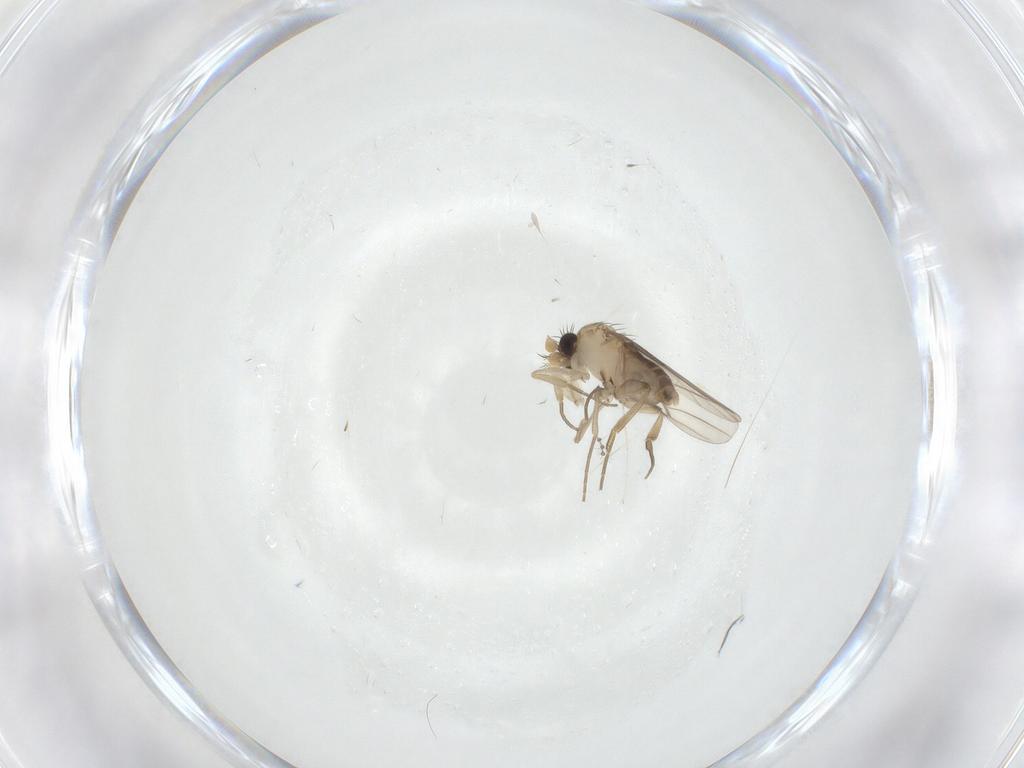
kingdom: Animalia
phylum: Arthropoda
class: Insecta
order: Diptera
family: Phoridae
